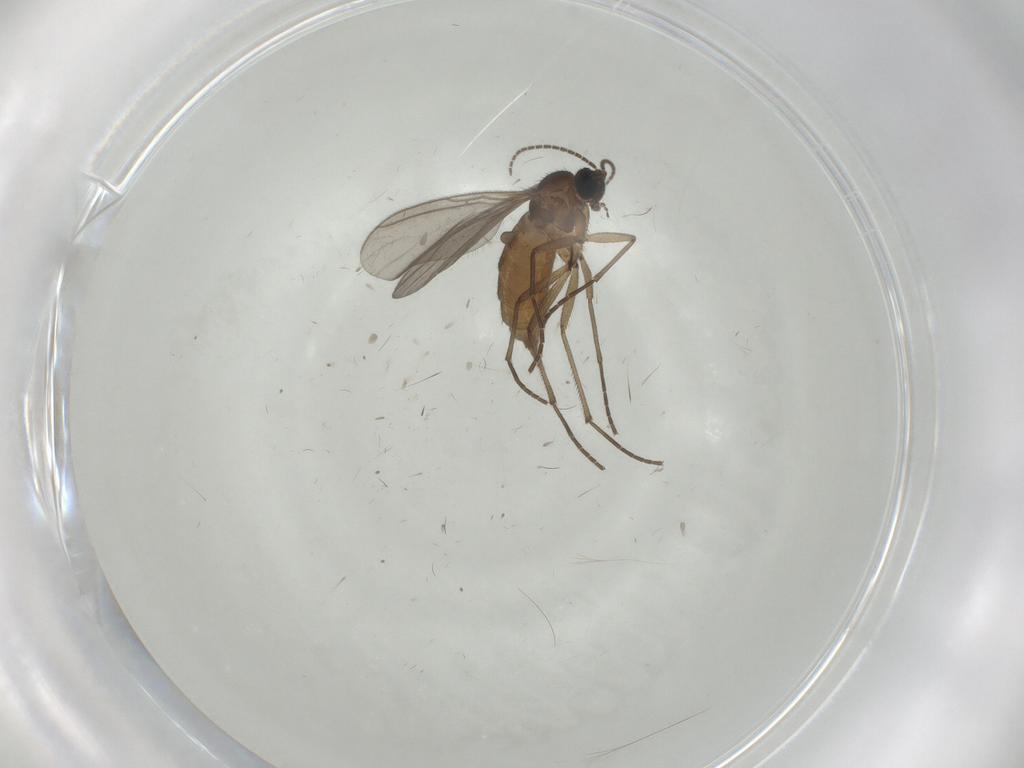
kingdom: Animalia
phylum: Arthropoda
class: Insecta
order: Diptera
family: Sciaridae
